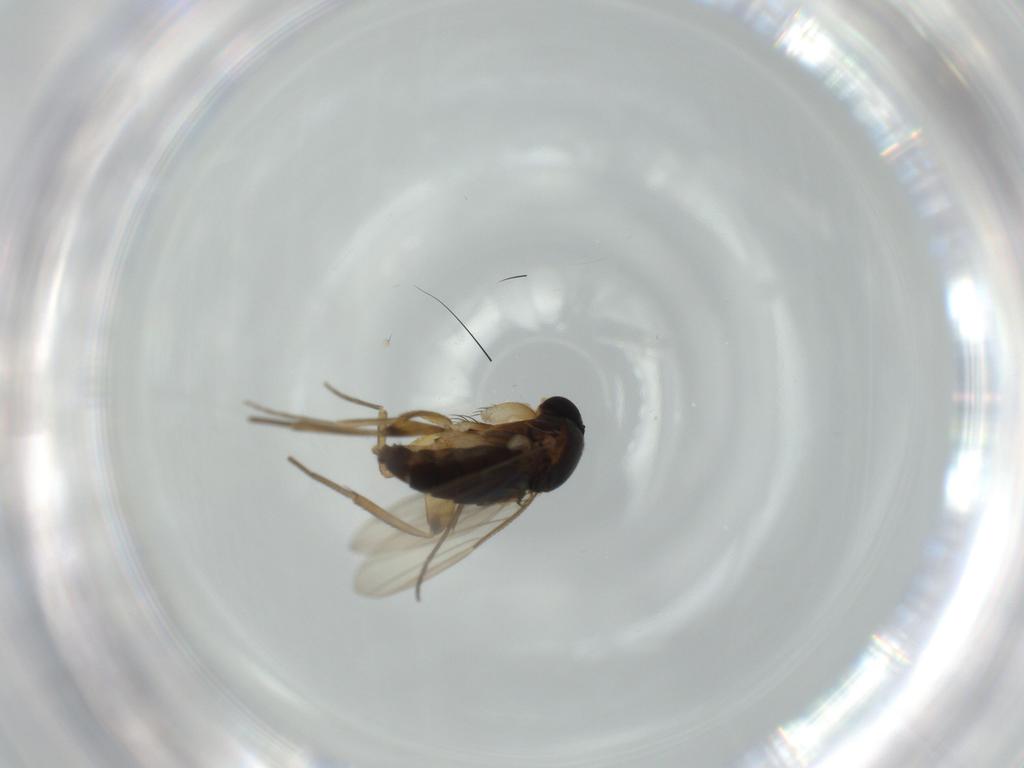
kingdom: Animalia
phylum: Arthropoda
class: Insecta
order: Diptera
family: Sciaridae
